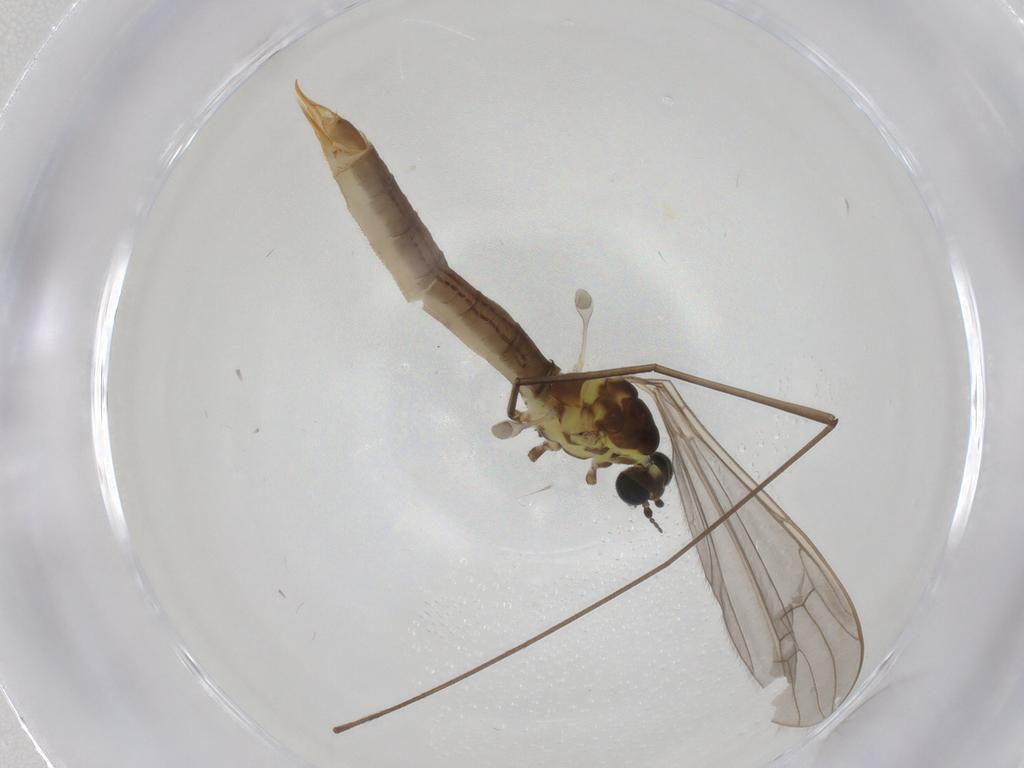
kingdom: Animalia
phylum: Arthropoda
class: Insecta
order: Diptera
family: Limoniidae
